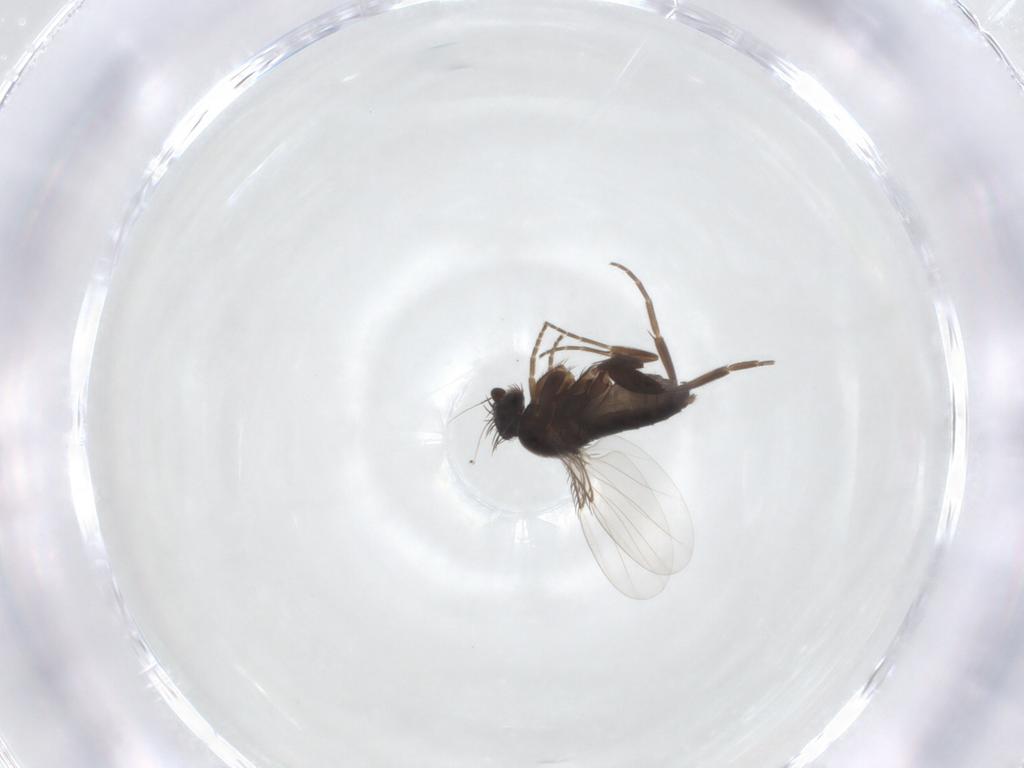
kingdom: Animalia
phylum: Arthropoda
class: Insecta
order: Diptera
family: Phoridae
